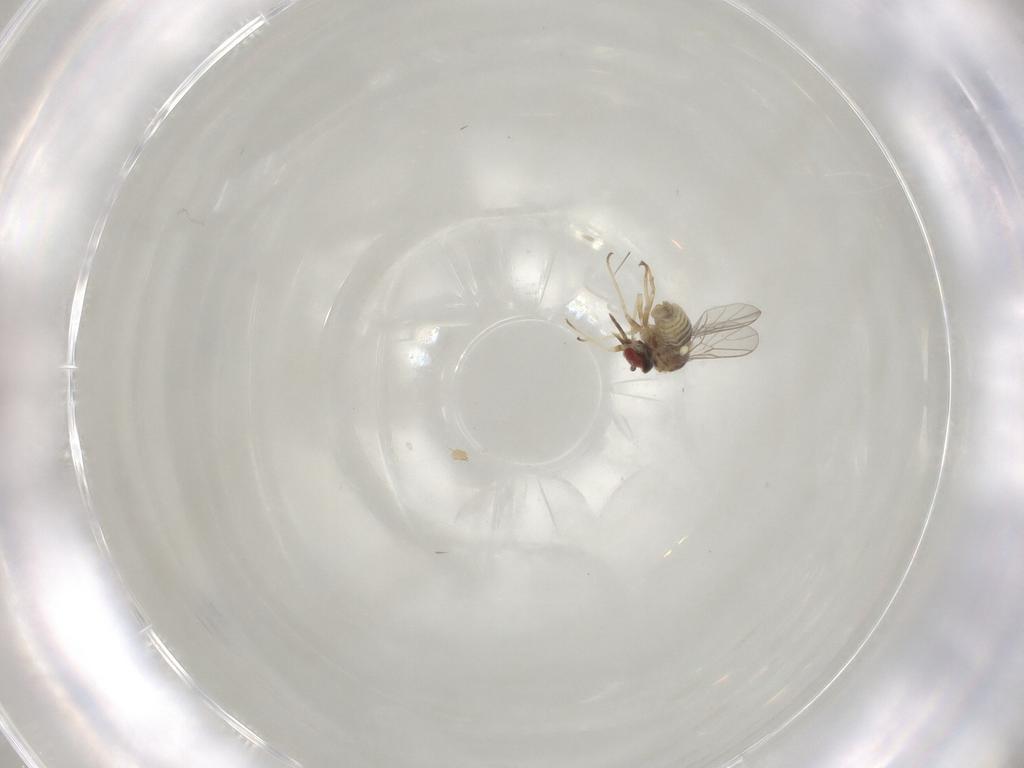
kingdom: Animalia
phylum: Arthropoda
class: Insecta
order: Diptera
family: Mythicomyiidae
